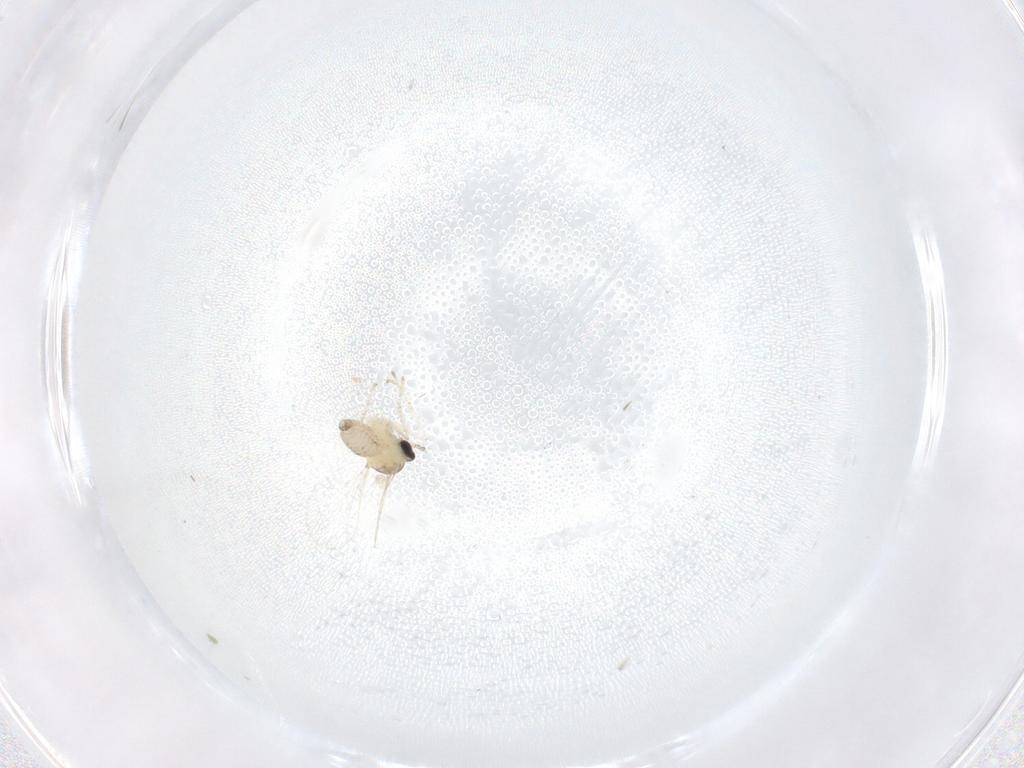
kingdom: Animalia
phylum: Arthropoda
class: Insecta
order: Diptera
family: Cecidomyiidae
